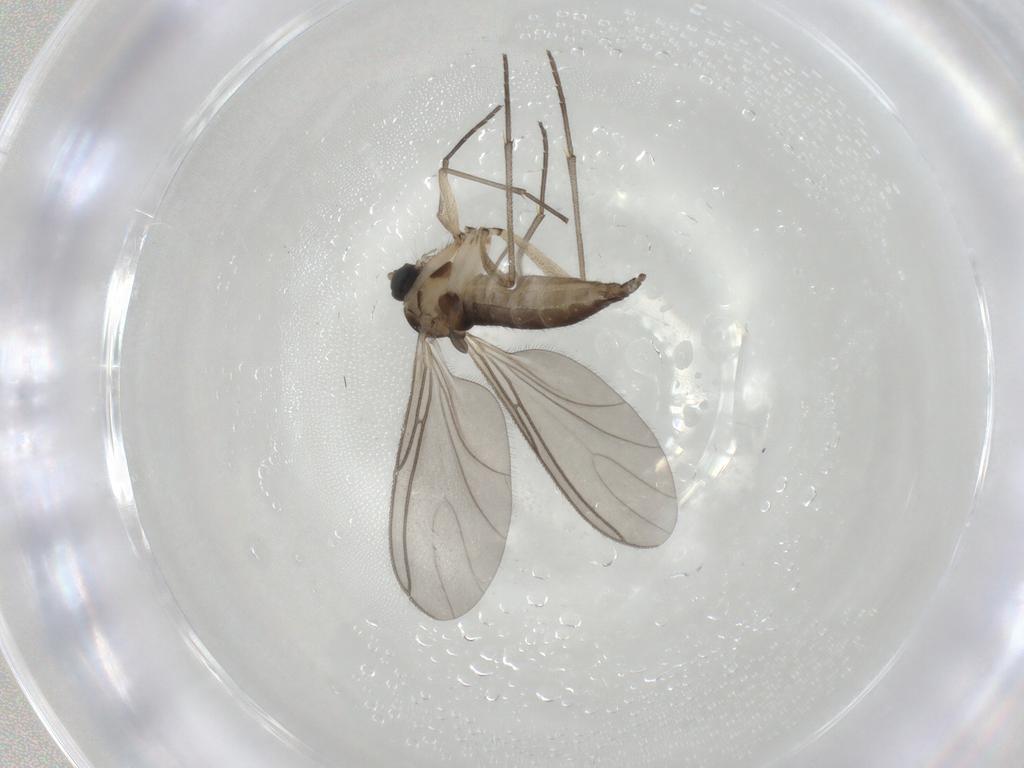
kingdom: Animalia
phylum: Arthropoda
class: Insecta
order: Diptera
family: Sciaridae
